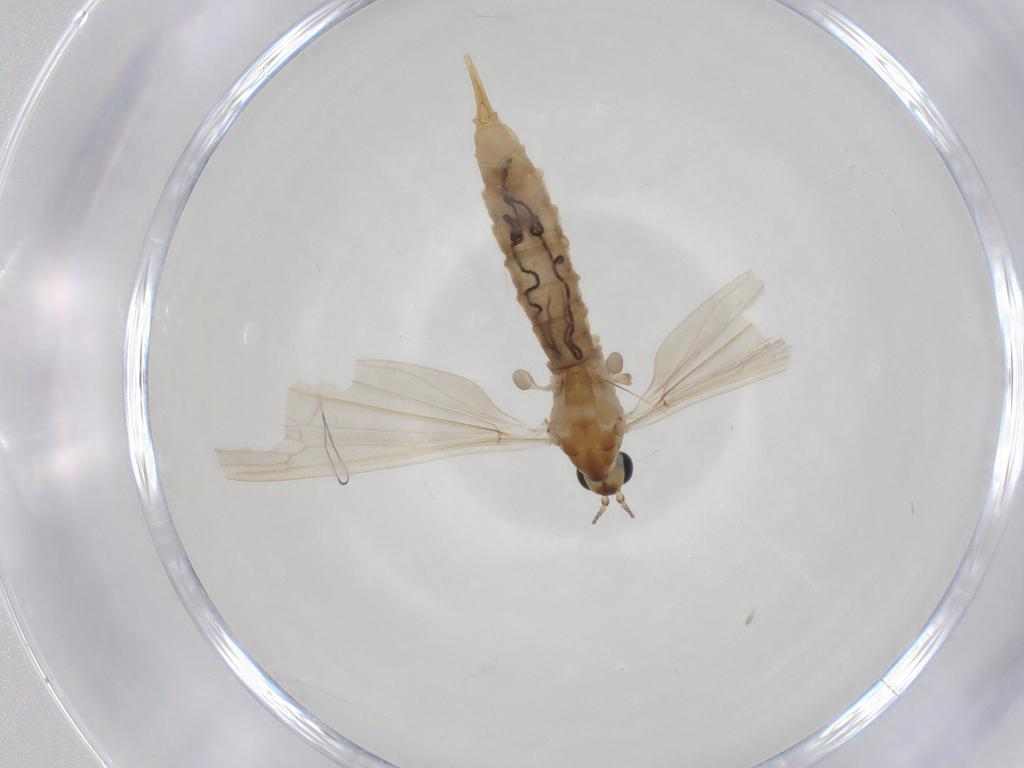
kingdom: Animalia
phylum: Arthropoda
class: Insecta
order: Diptera
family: Limoniidae
